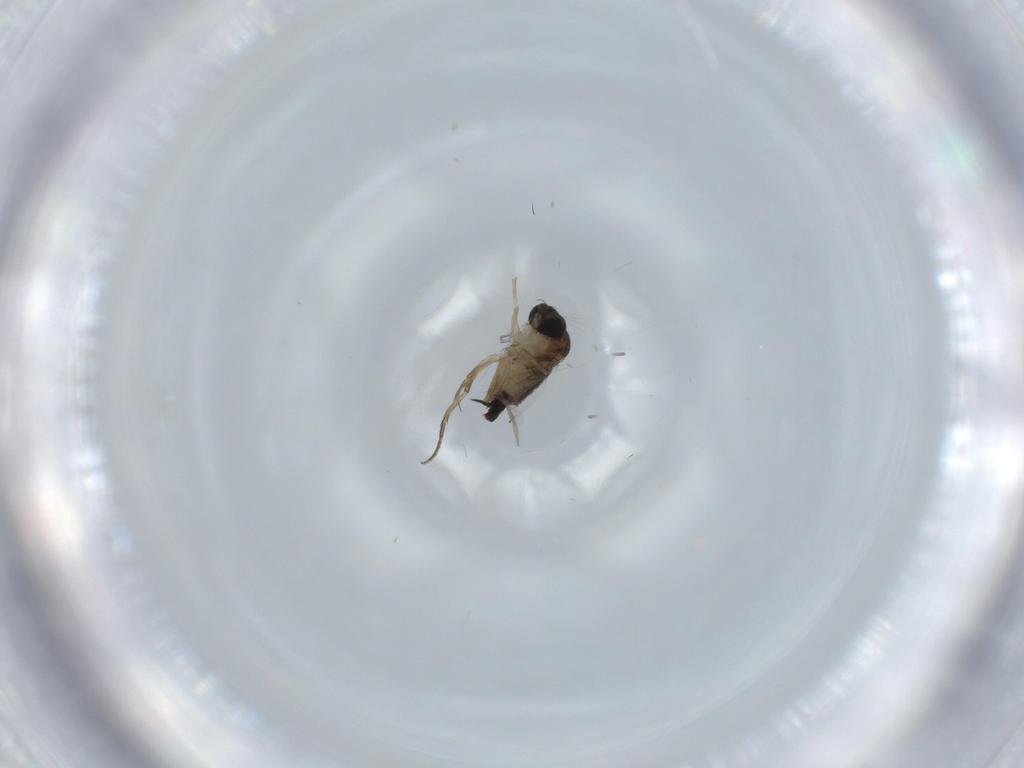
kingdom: Animalia
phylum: Arthropoda
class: Insecta
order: Diptera
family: Phoridae
